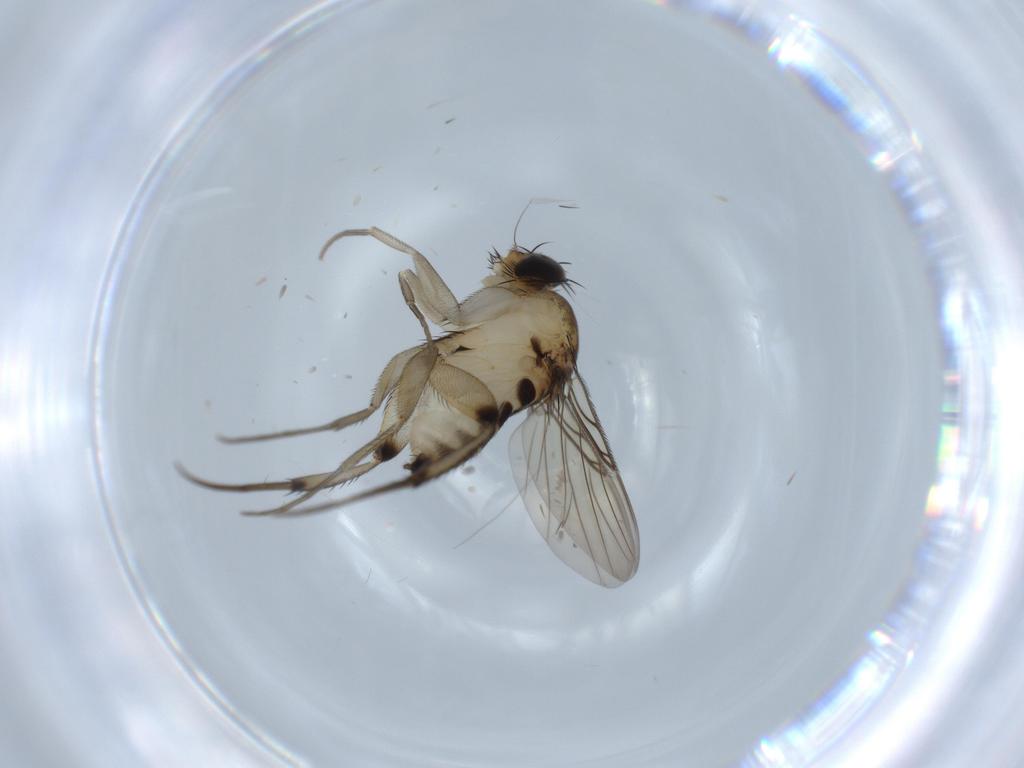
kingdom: Animalia
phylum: Arthropoda
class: Insecta
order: Diptera
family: Phoridae
